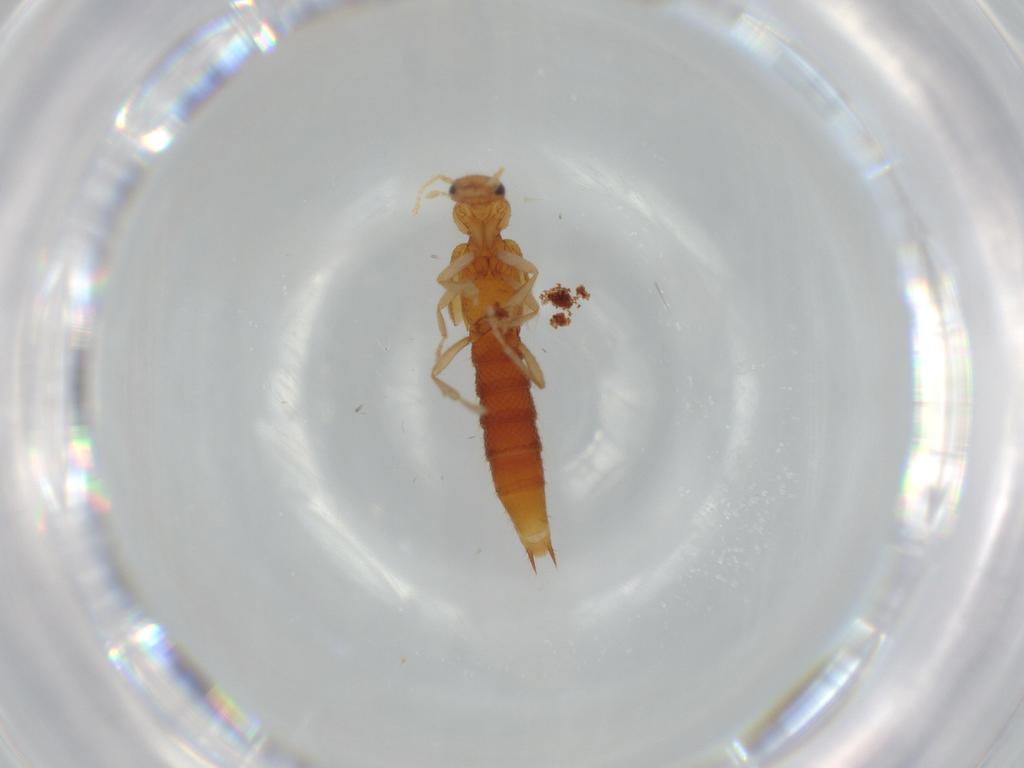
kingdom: Animalia
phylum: Arthropoda
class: Insecta
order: Coleoptera
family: Staphylinidae
